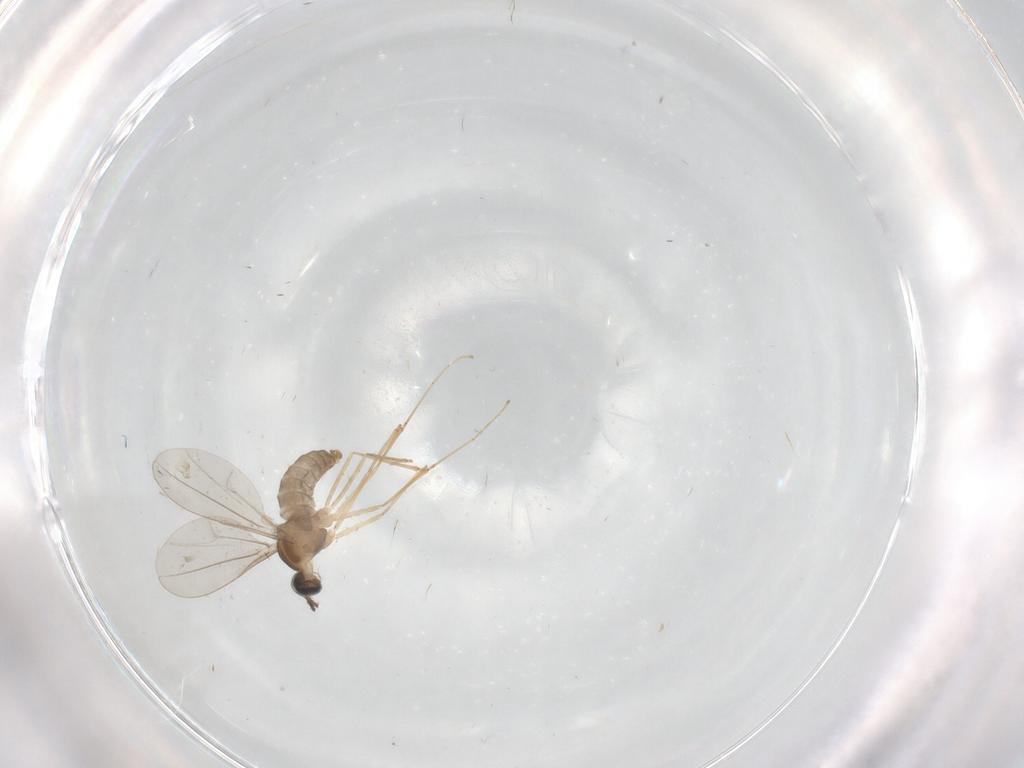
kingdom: Animalia
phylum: Arthropoda
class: Insecta
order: Diptera
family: Cecidomyiidae
